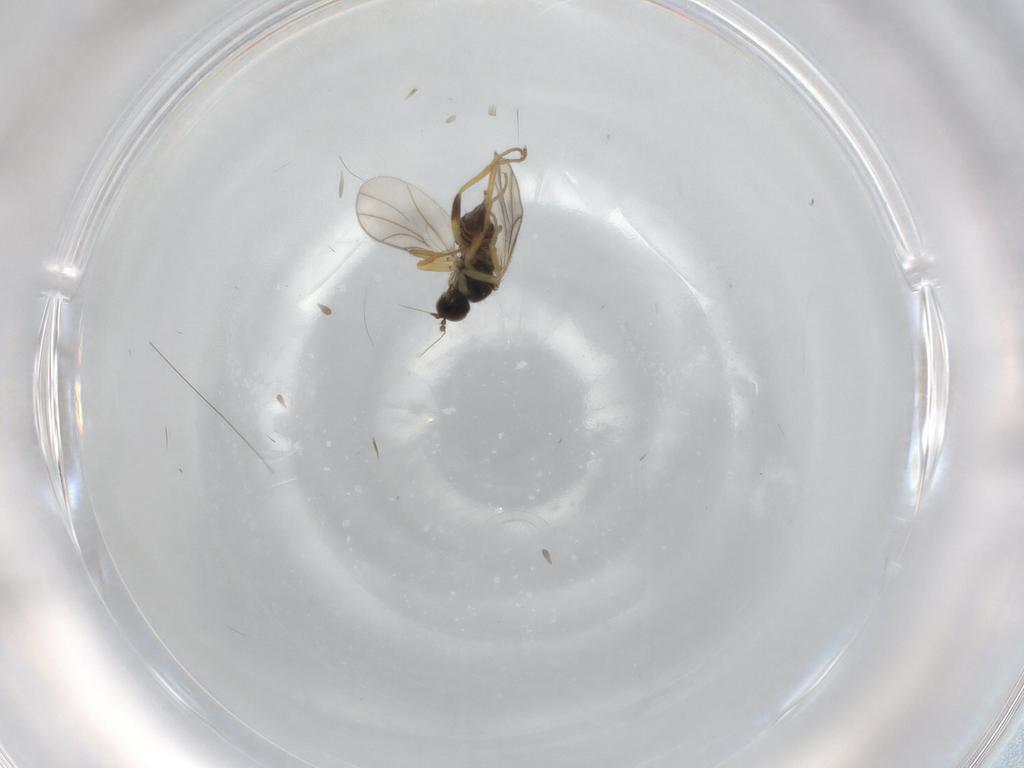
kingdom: Animalia
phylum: Arthropoda
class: Insecta
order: Diptera
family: Hybotidae
